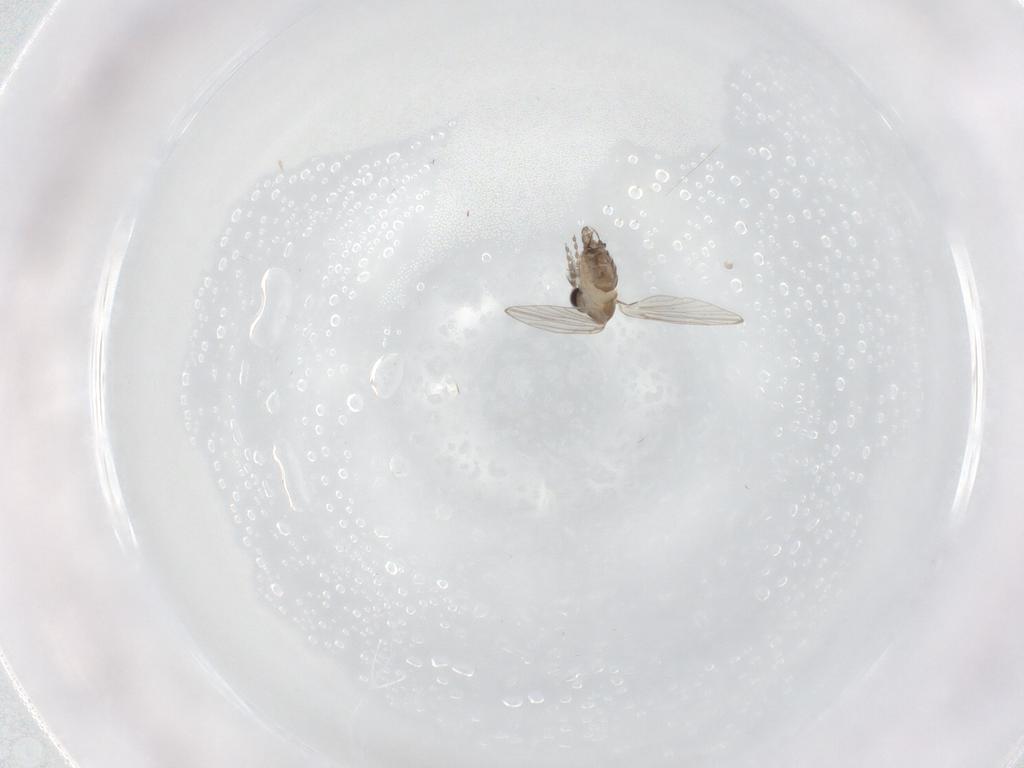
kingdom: Animalia
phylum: Arthropoda
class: Insecta
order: Diptera
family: Psychodidae
